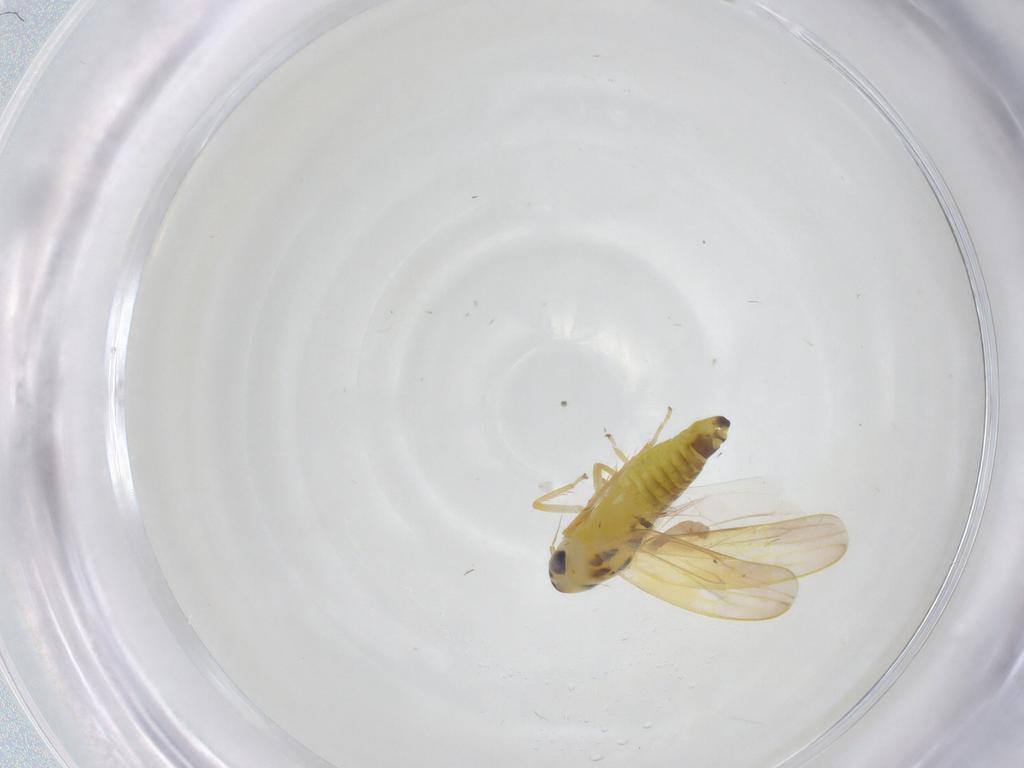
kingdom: Animalia
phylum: Arthropoda
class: Insecta
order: Hemiptera
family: Cicadellidae
